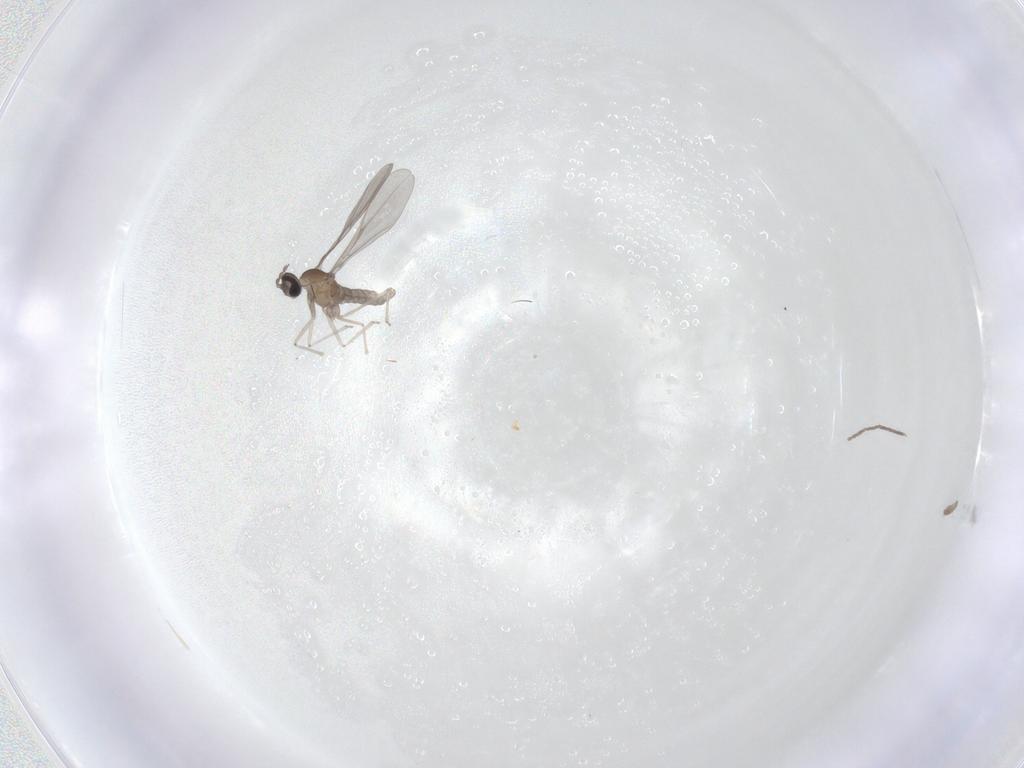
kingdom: Animalia
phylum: Arthropoda
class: Insecta
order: Diptera
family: Cecidomyiidae
